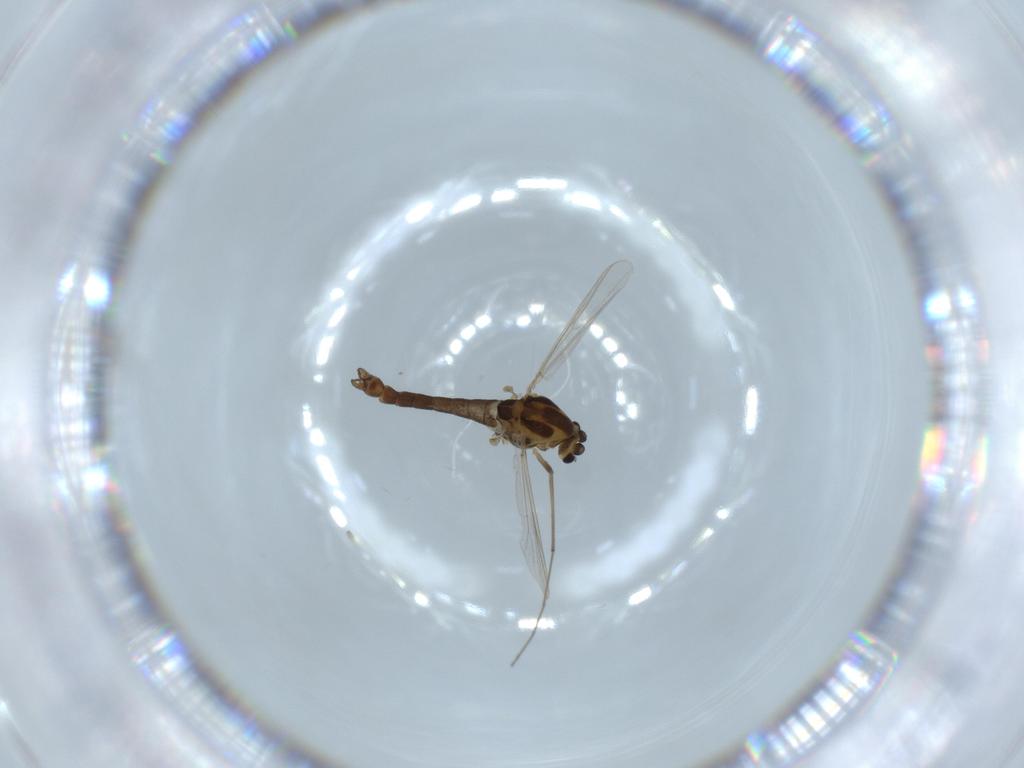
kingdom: Animalia
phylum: Arthropoda
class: Insecta
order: Diptera
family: Chironomidae
